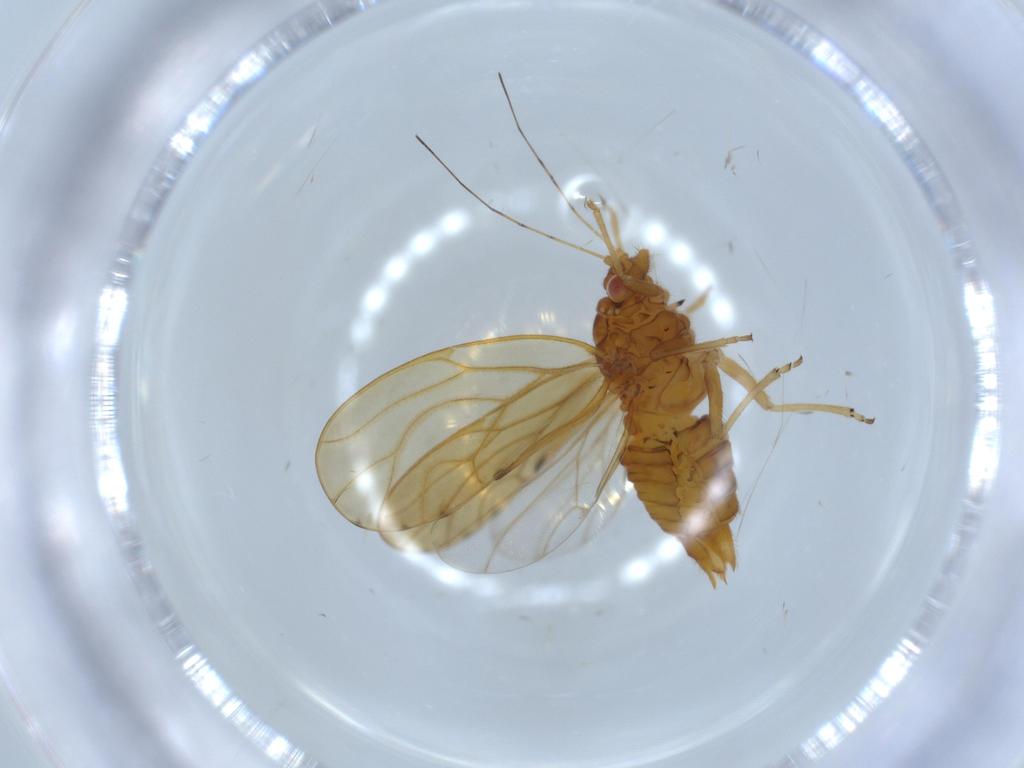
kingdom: Animalia
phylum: Arthropoda
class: Insecta
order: Hemiptera
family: Psylloidea_incertae_sedis
